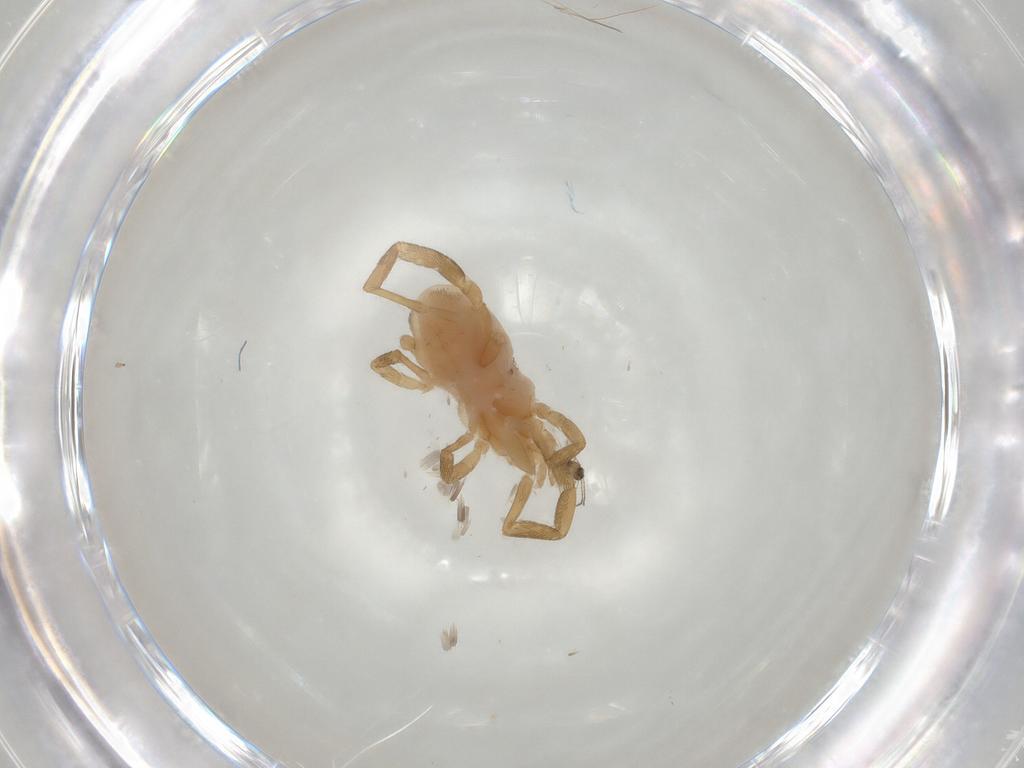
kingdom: Animalia
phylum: Arthropoda
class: Arachnida
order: Trombidiformes
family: Erythraeidae
